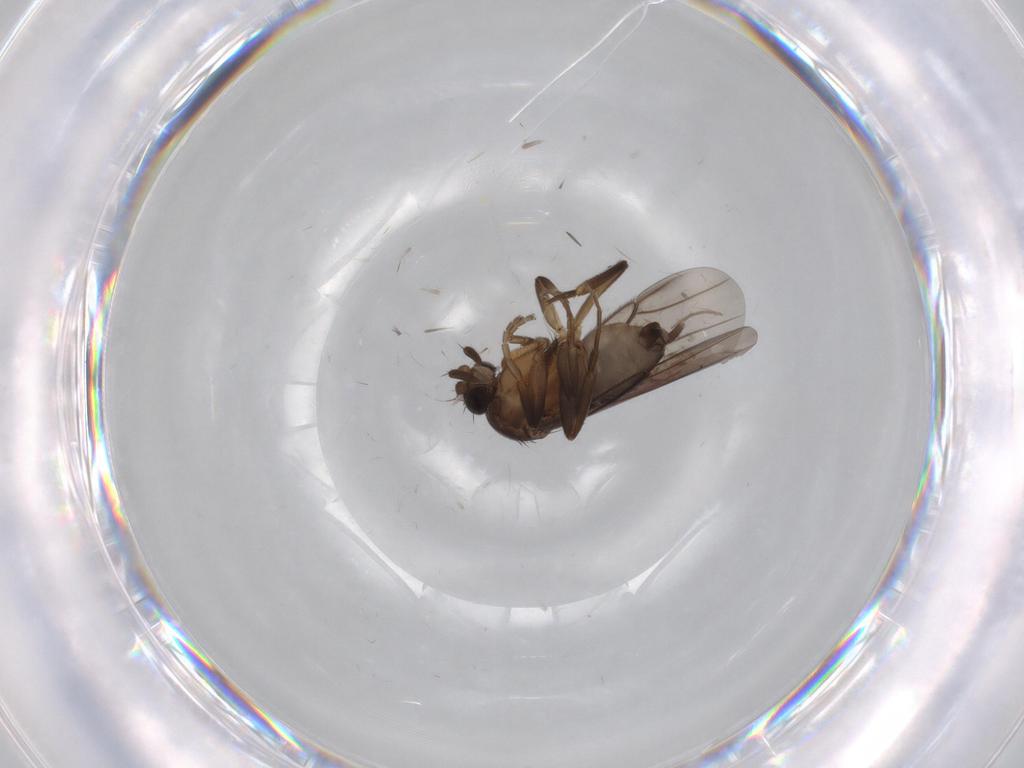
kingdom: Animalia
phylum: Arthropoda
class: Insecta
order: Diptera
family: Phoridae
